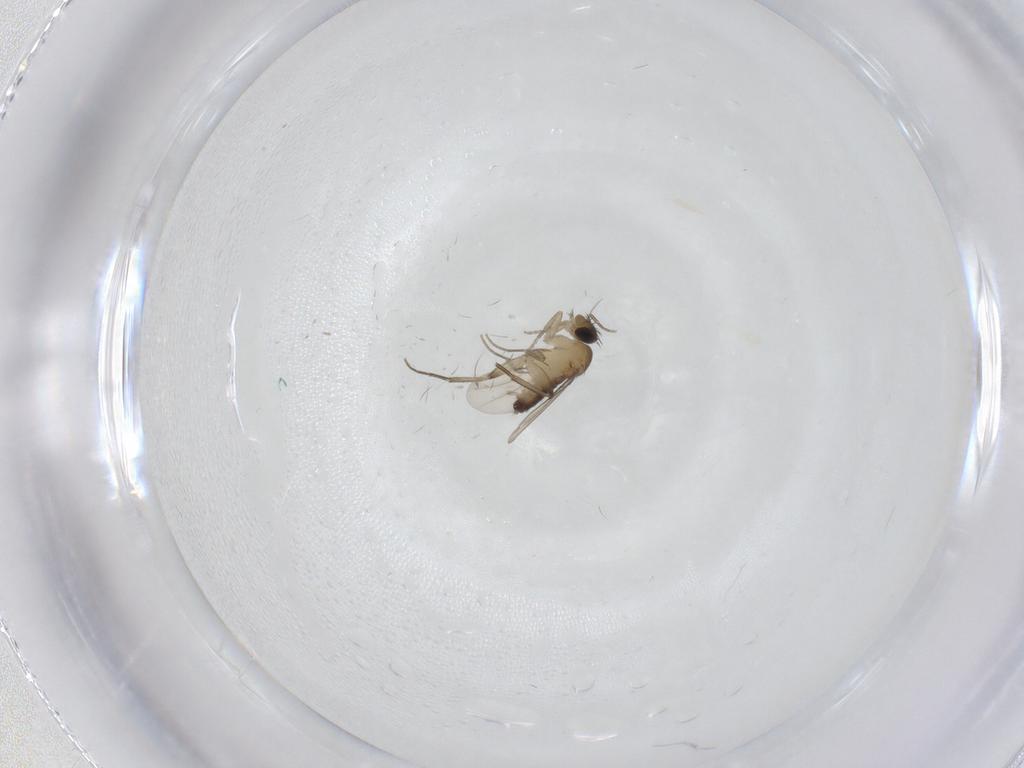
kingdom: Animalia
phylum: Arthropoda
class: Insecta
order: Diptera
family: Phoridae
